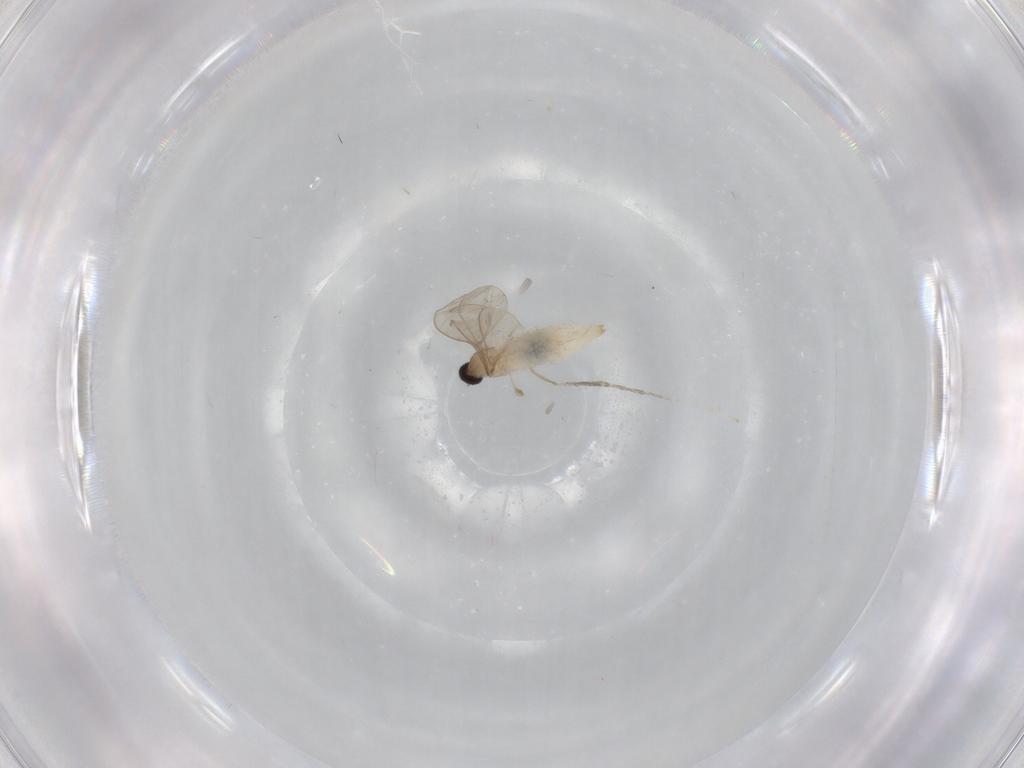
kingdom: Animalia
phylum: Arthropoda
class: Insecta
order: Diptera
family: Cecidomyiidae
